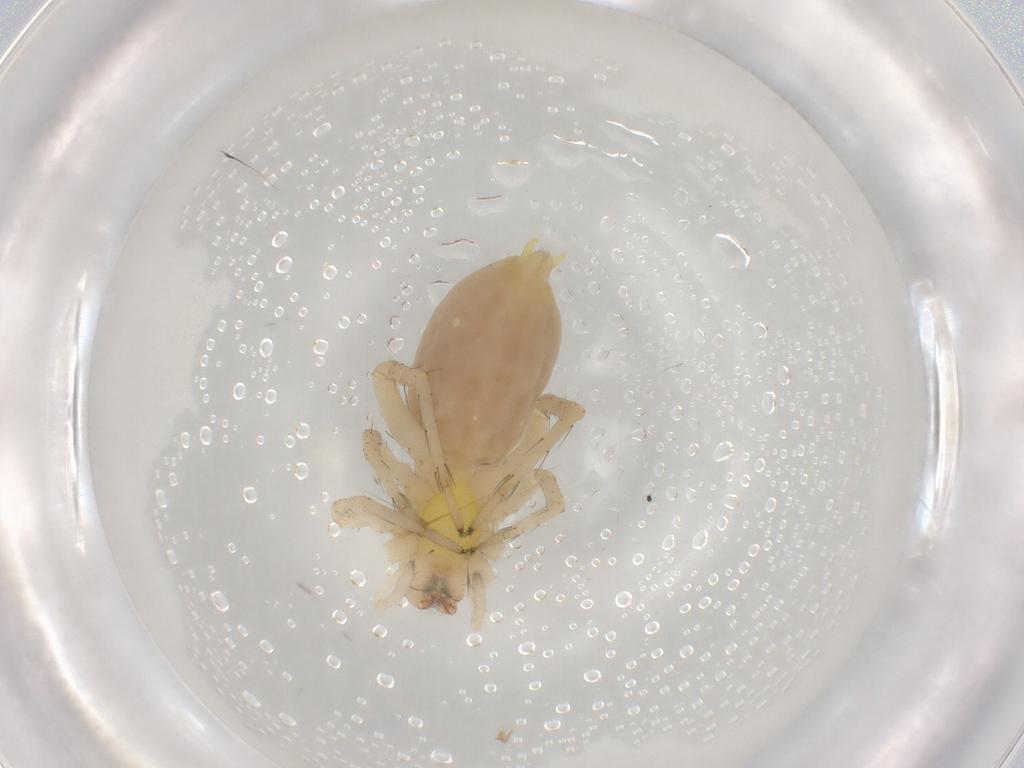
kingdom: Animalia
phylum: Arthropoda
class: Arachnida
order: Araneae
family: Anyphaenidae
